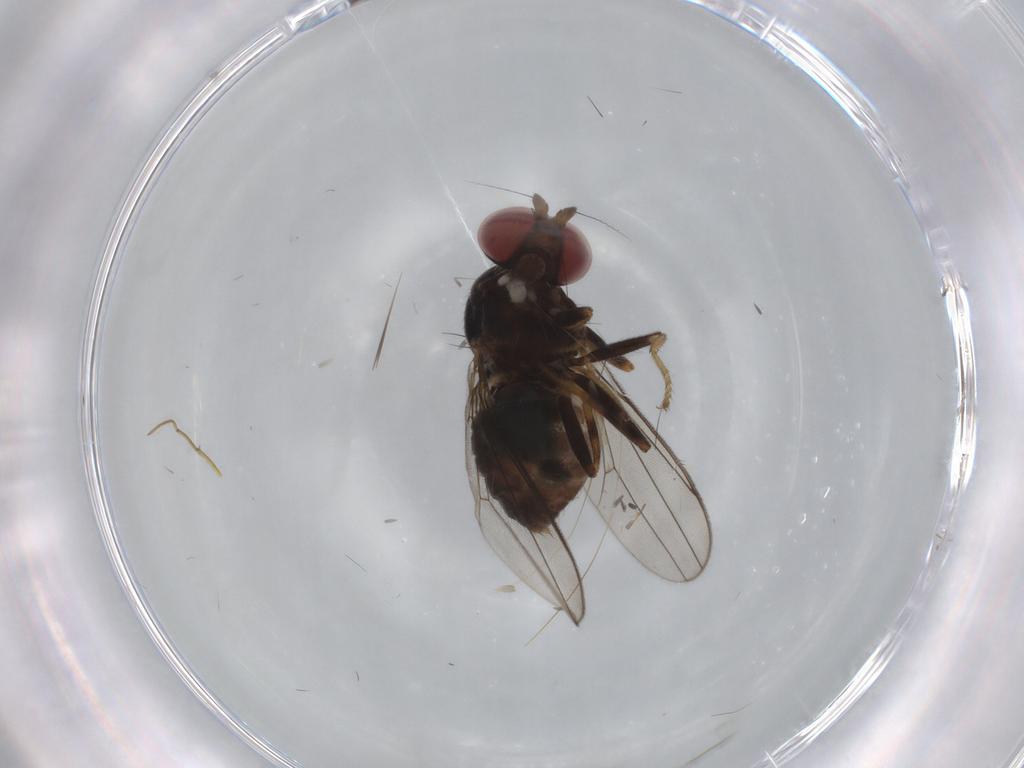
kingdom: Animalia
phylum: Arthropoda
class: Insecta
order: Diptera
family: Aulacigastridae
